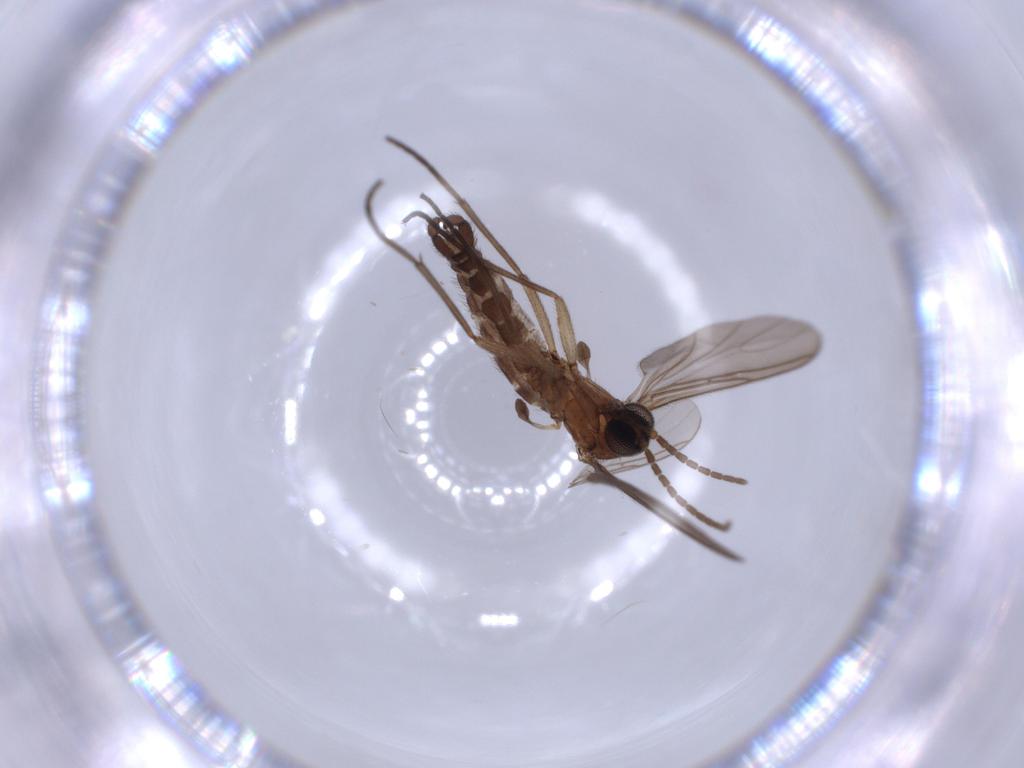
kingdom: Animalia
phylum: Arthropoda
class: Insecta
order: Diptera
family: Sciaridae
